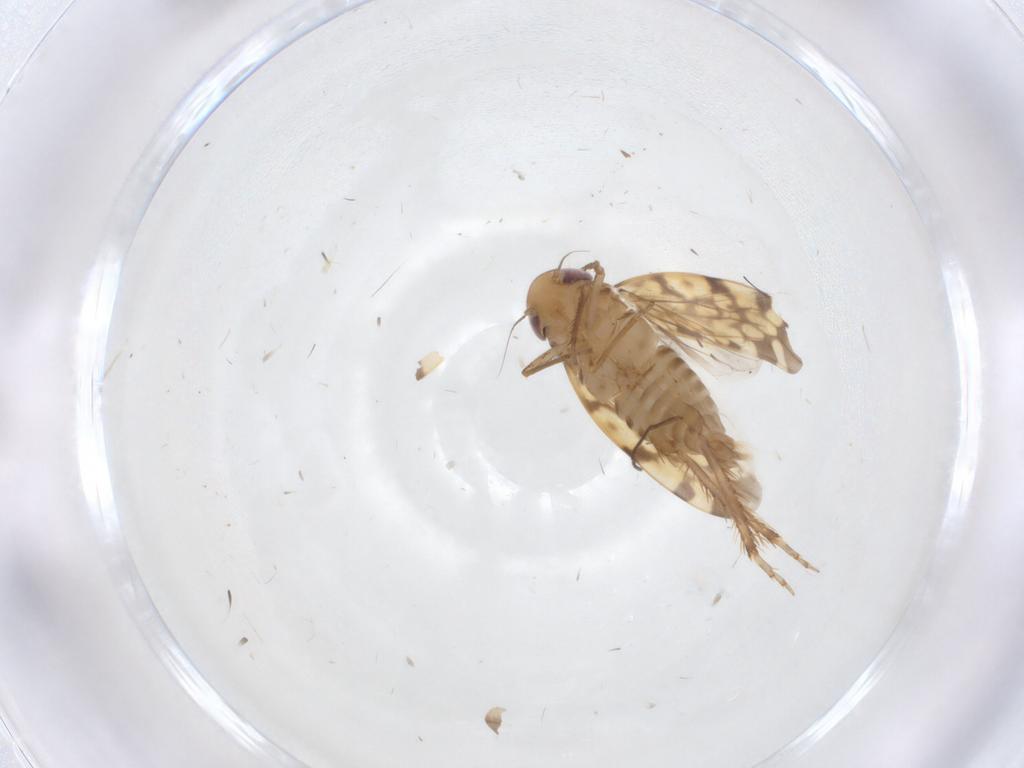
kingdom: Animalia
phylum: Arthropoda
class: Insecta
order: Hemiptera
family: Cicadellidae
